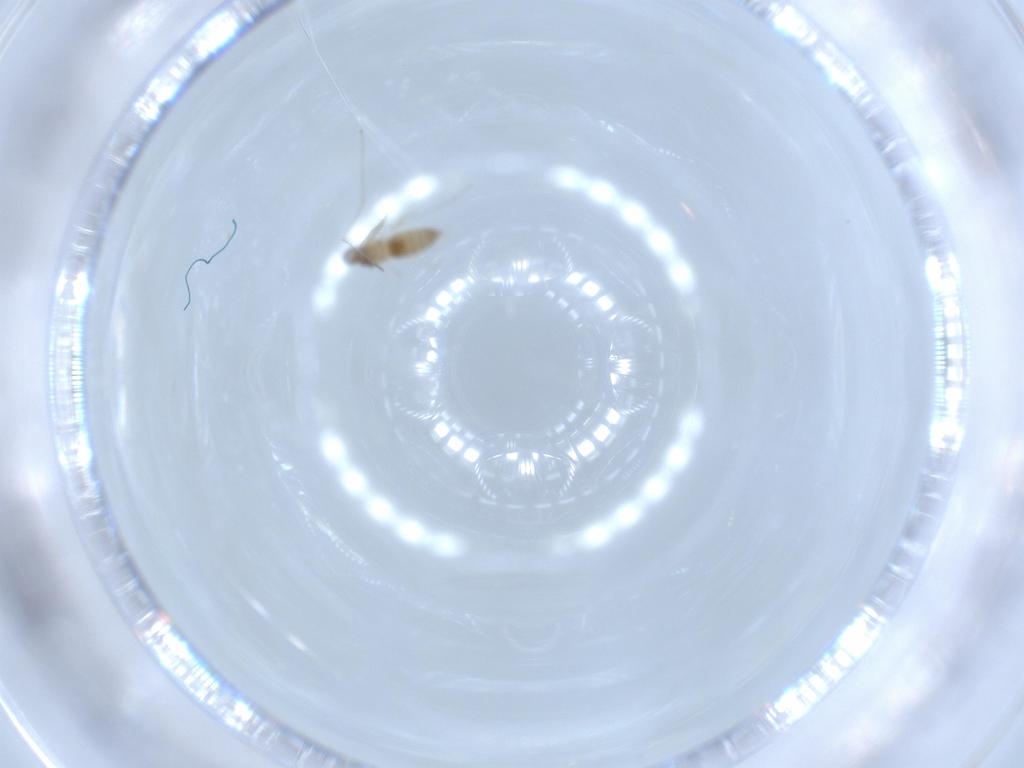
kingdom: Animalia
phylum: Arthropoda
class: Insecta
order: Diptera
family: Cecidomyiidae
